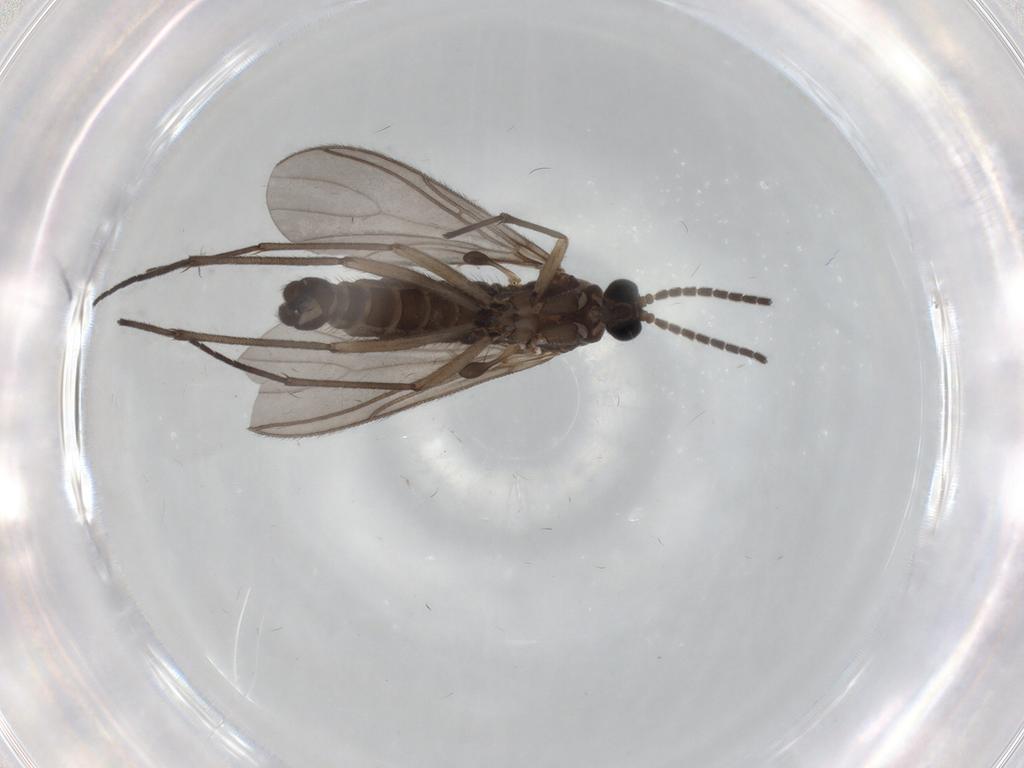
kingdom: Animalia
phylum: Arthropoda
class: Insecta
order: Diptera
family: Sciaridae
